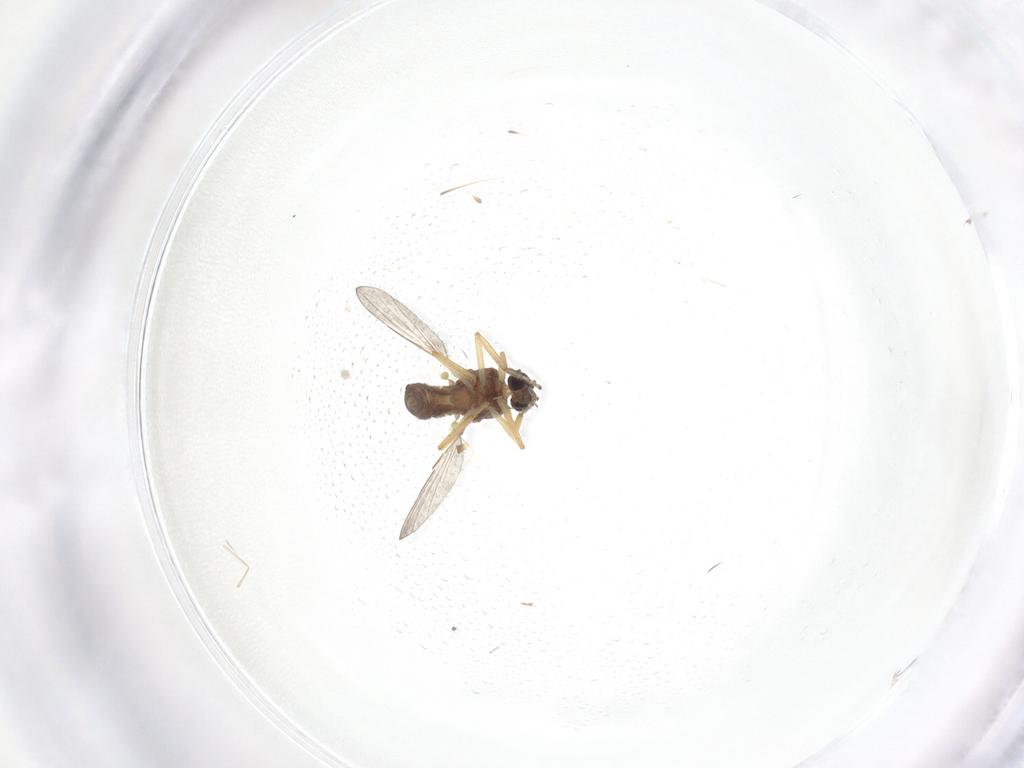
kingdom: Animalia
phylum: Arthropoda
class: Insecta
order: Diptera
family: Ceratopogonidae
